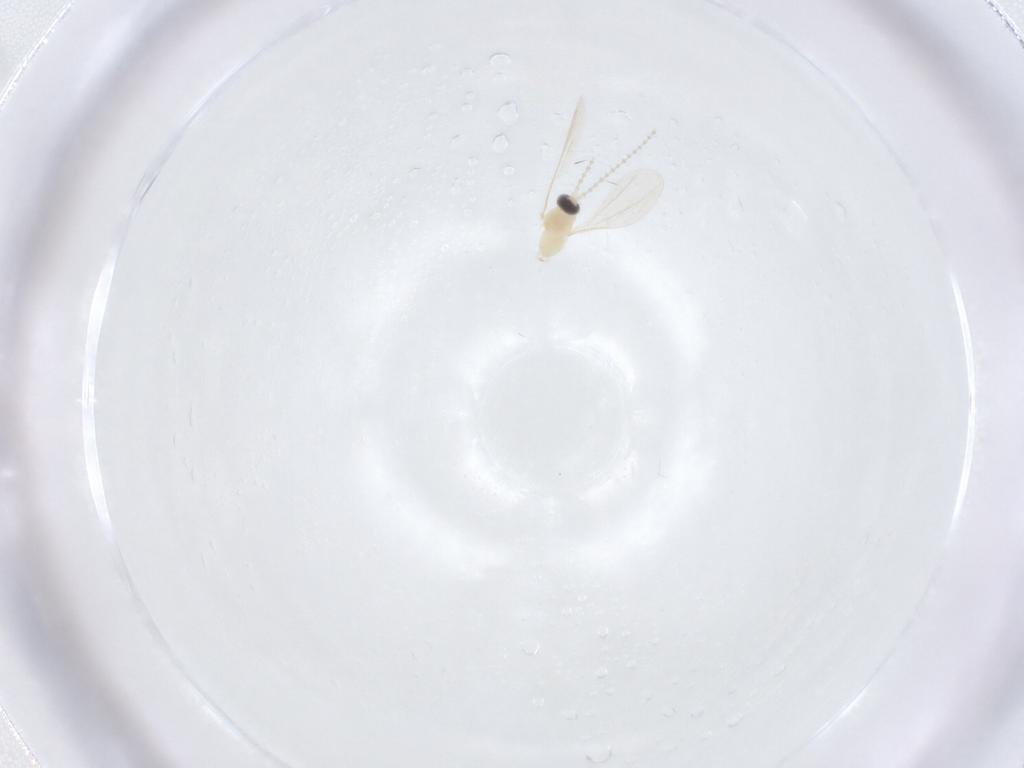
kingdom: Animalia
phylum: Arthropoda
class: Insecta
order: Diptera
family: Cecidomyiidae
